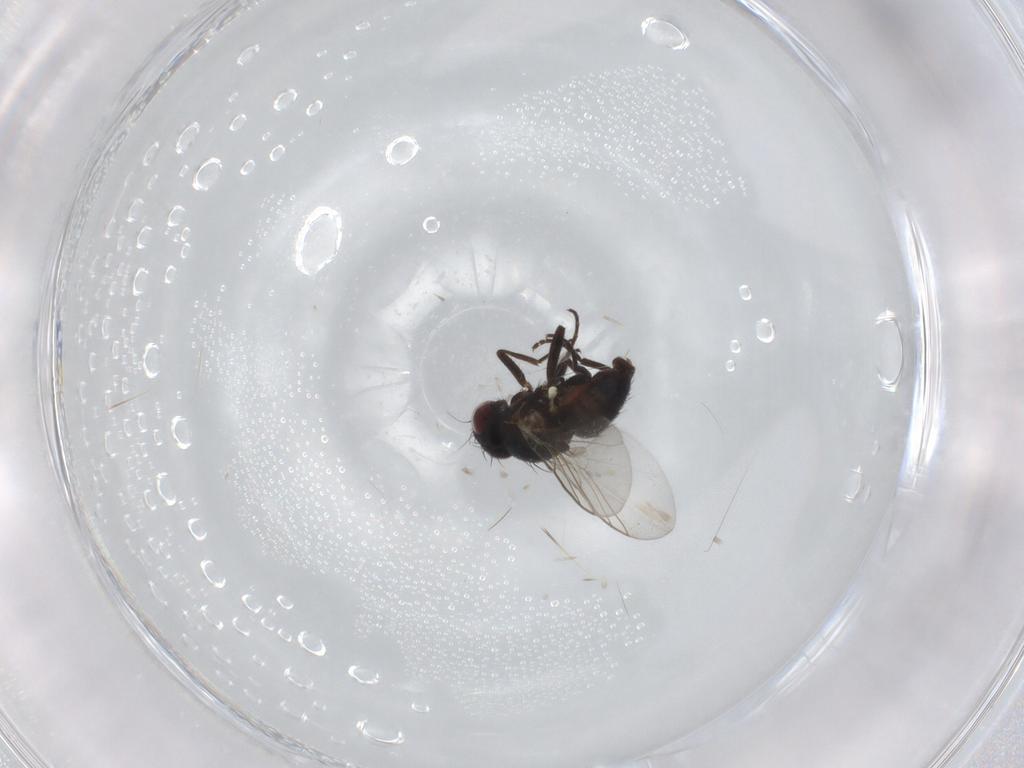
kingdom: Animalia
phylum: Arthropoda
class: Insecta
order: Diptera
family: Agromyzidae
